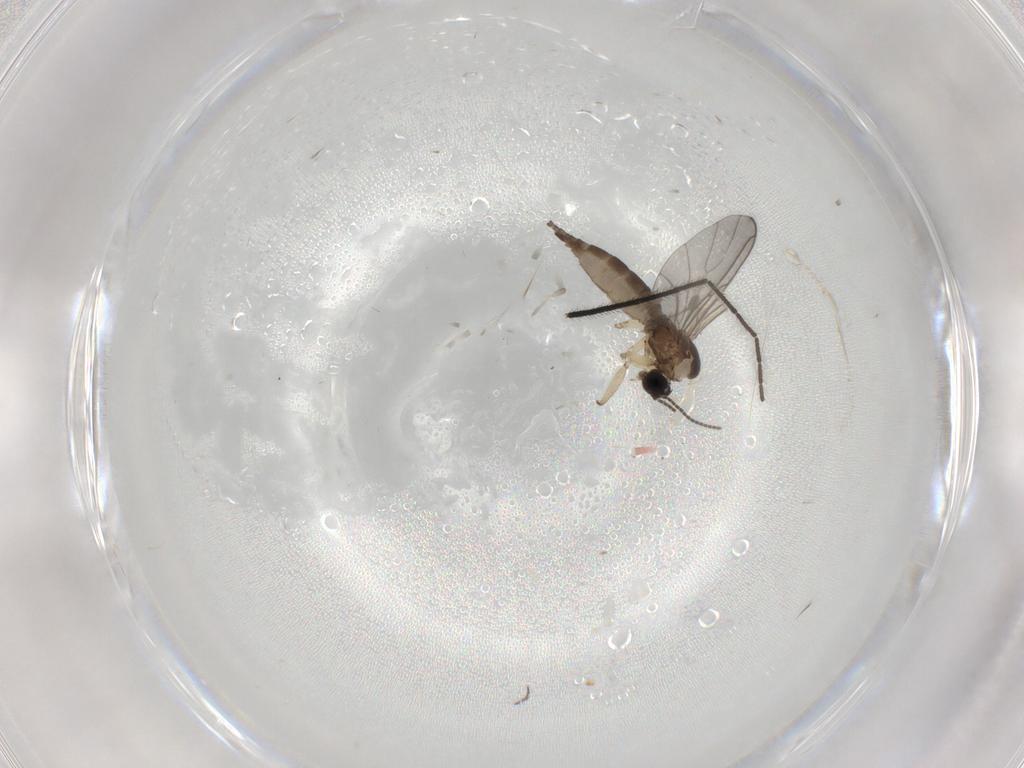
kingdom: Animalia
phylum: Arthropoda
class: Insecta
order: Diptera
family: Sciaridae
